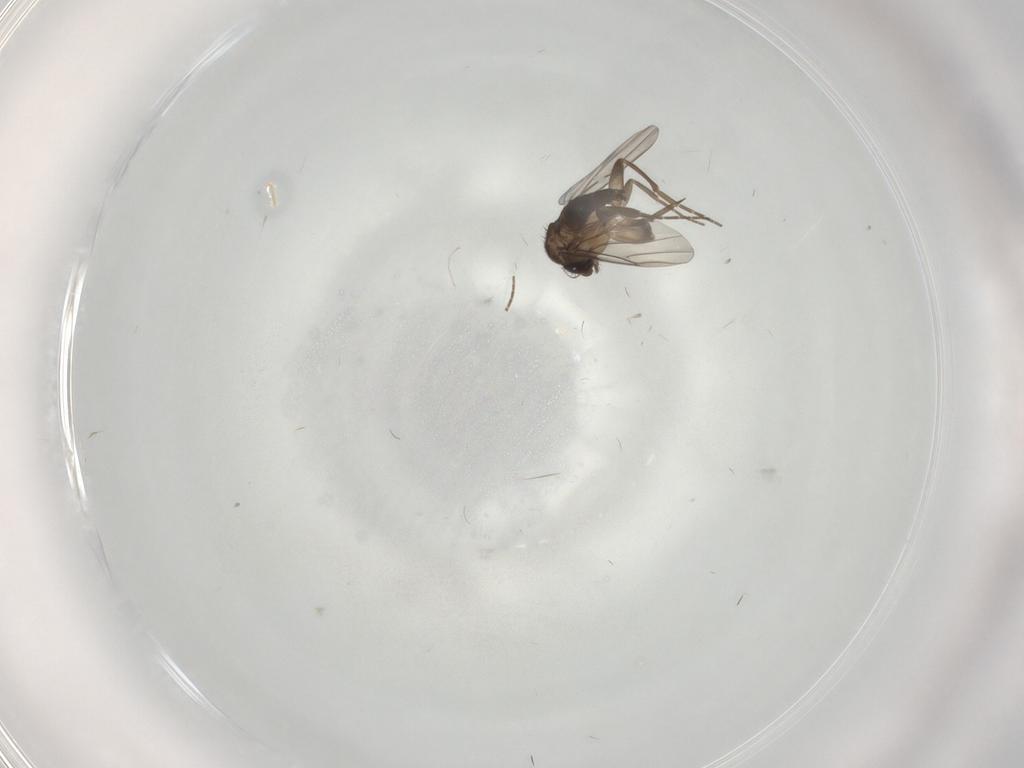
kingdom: Animalia
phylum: Arthropoda
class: Insecta
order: Diptera
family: Phoridae
